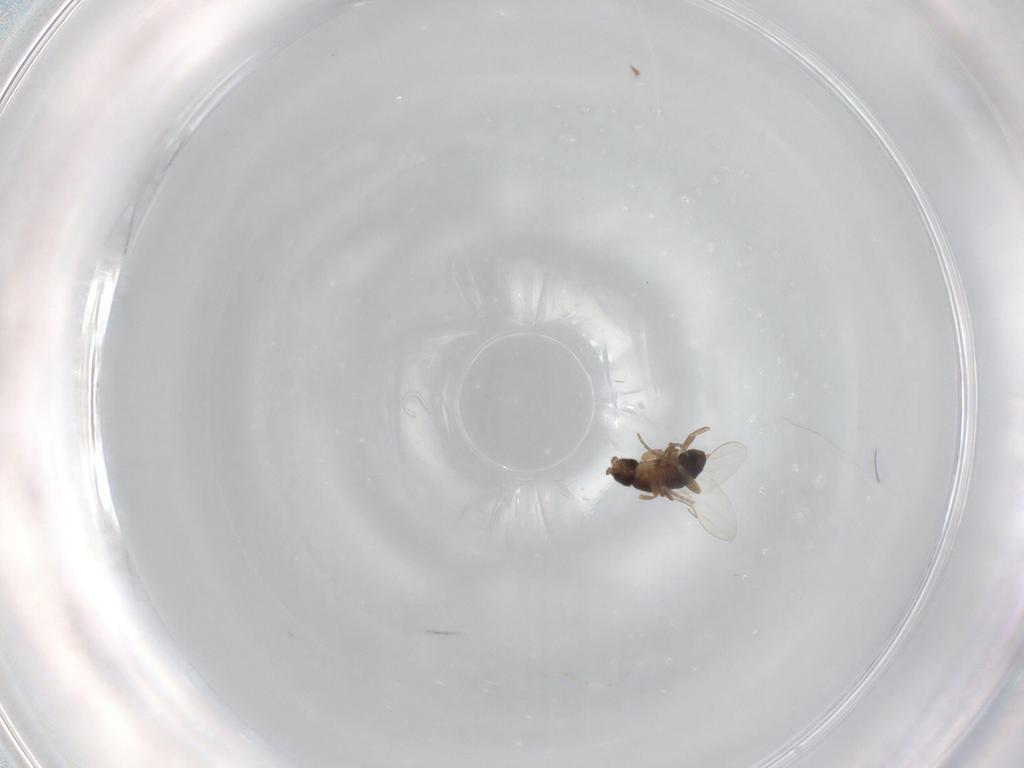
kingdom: Animalia
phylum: Arthropoda
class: Insecta
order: Diptera
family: Phoridae
